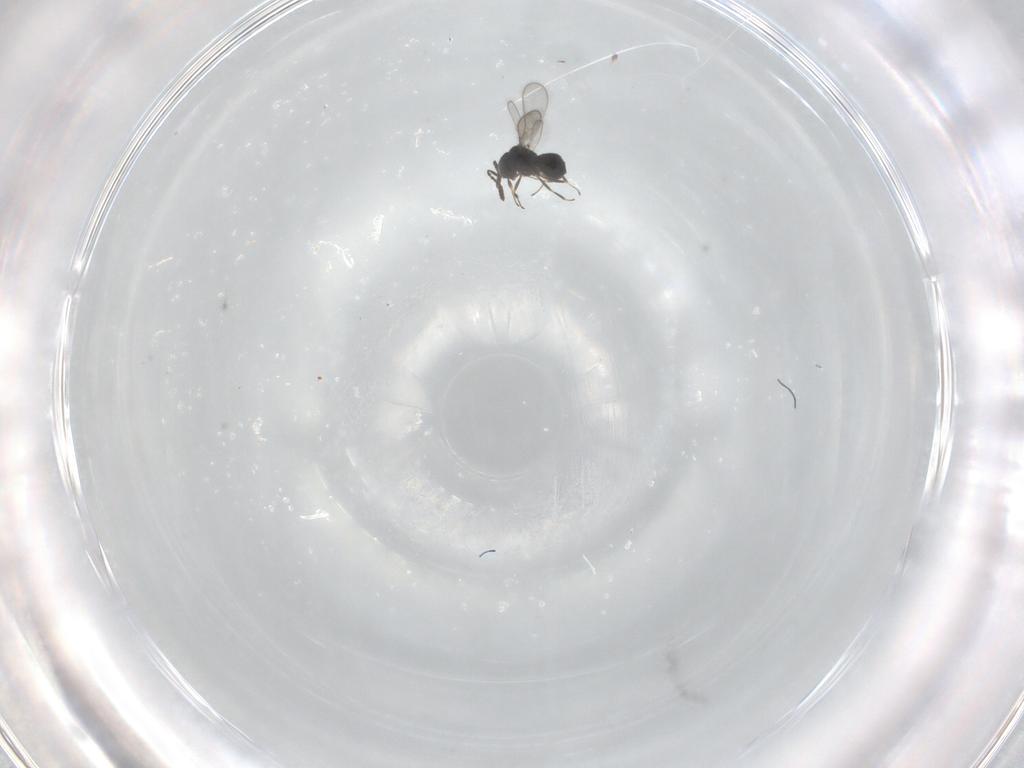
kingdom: Animalia
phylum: Arthropoda
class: Insecta
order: Hymenoptera
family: Scelionidae
